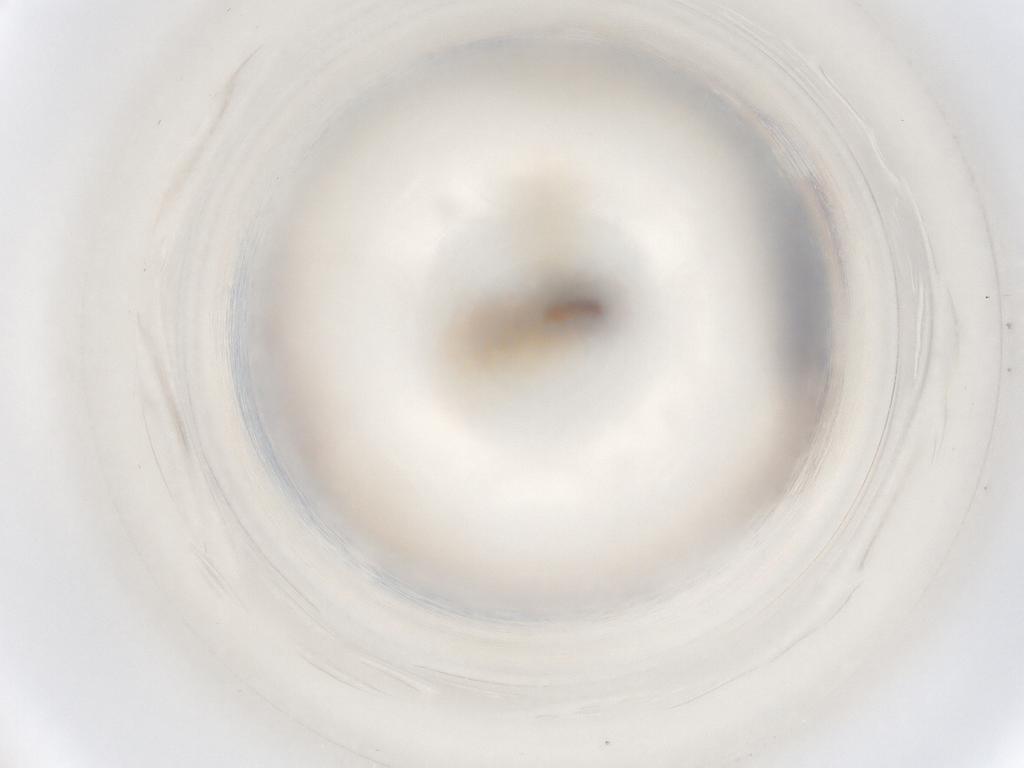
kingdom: Animalia
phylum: Arthropoda
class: Insecta
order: Diptera
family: Periscelididae
